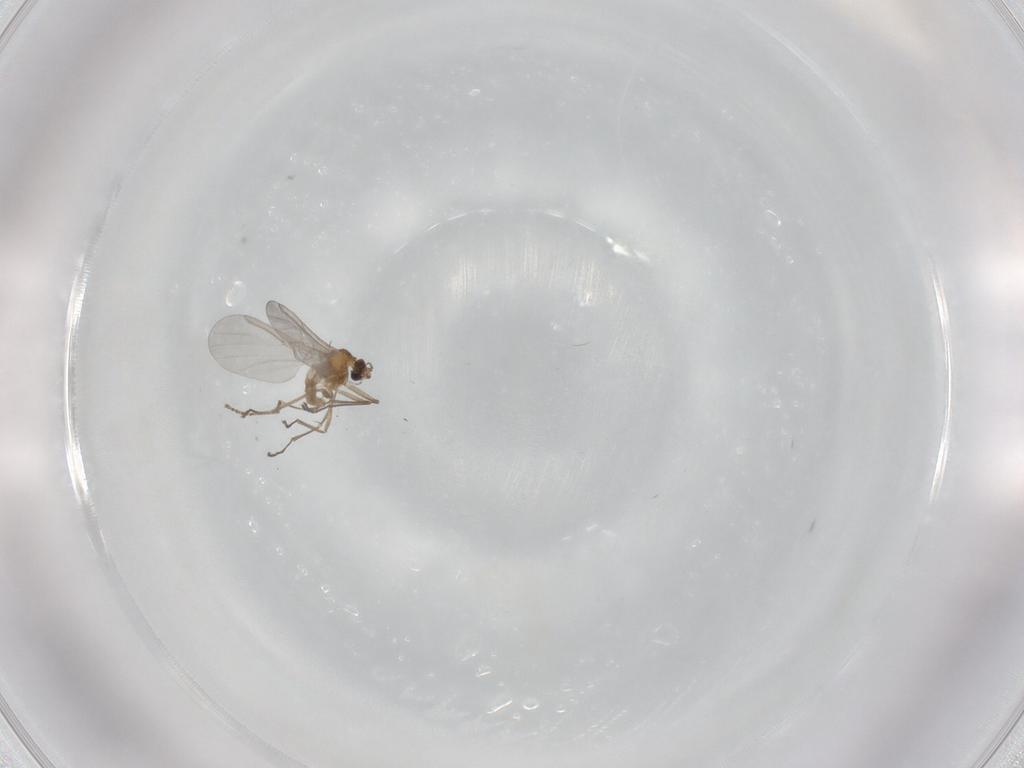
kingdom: Animalia
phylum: Arthropoda
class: Insecta
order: Diptera
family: Cecidomyiidae
